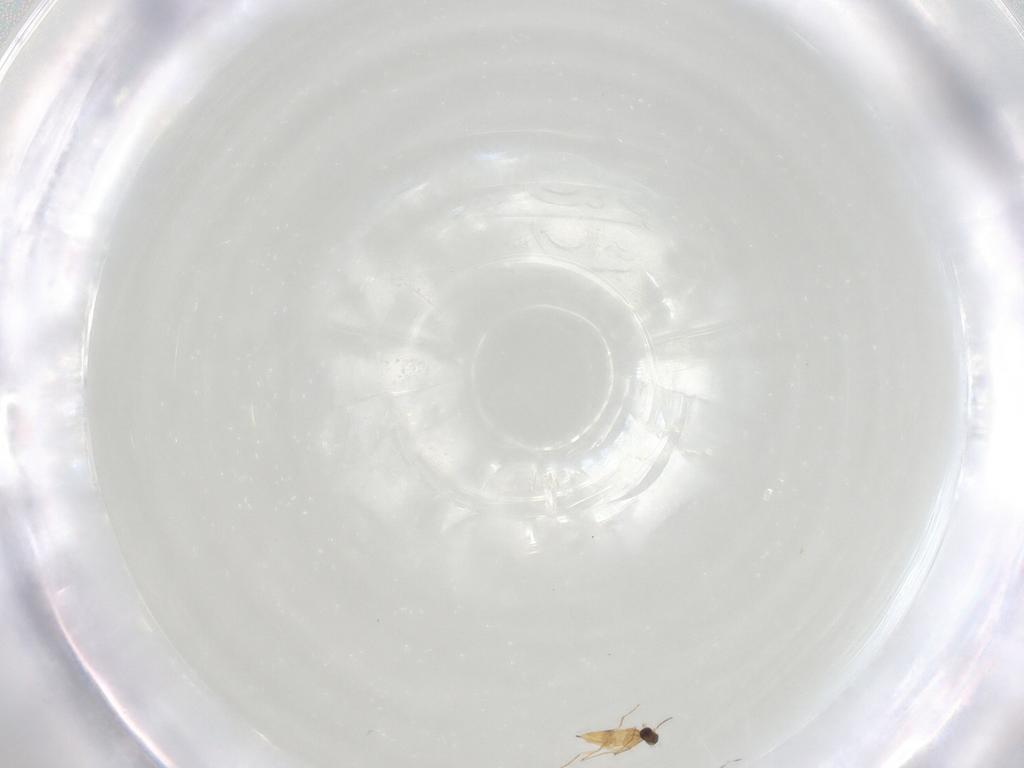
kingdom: Animalia
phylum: Arthropoda
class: Insecta
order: Hymenoptera
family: Mymaridae
